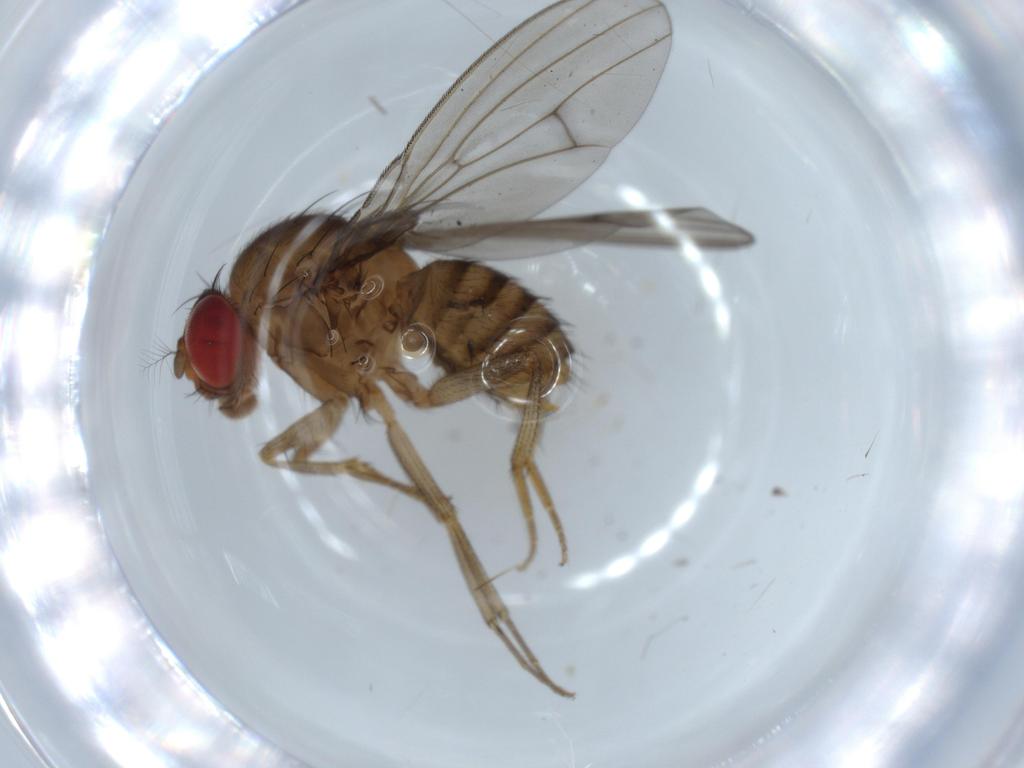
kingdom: Animalia
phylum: Arthropoda
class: Insecta
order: Diptera
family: Drosophilidae
